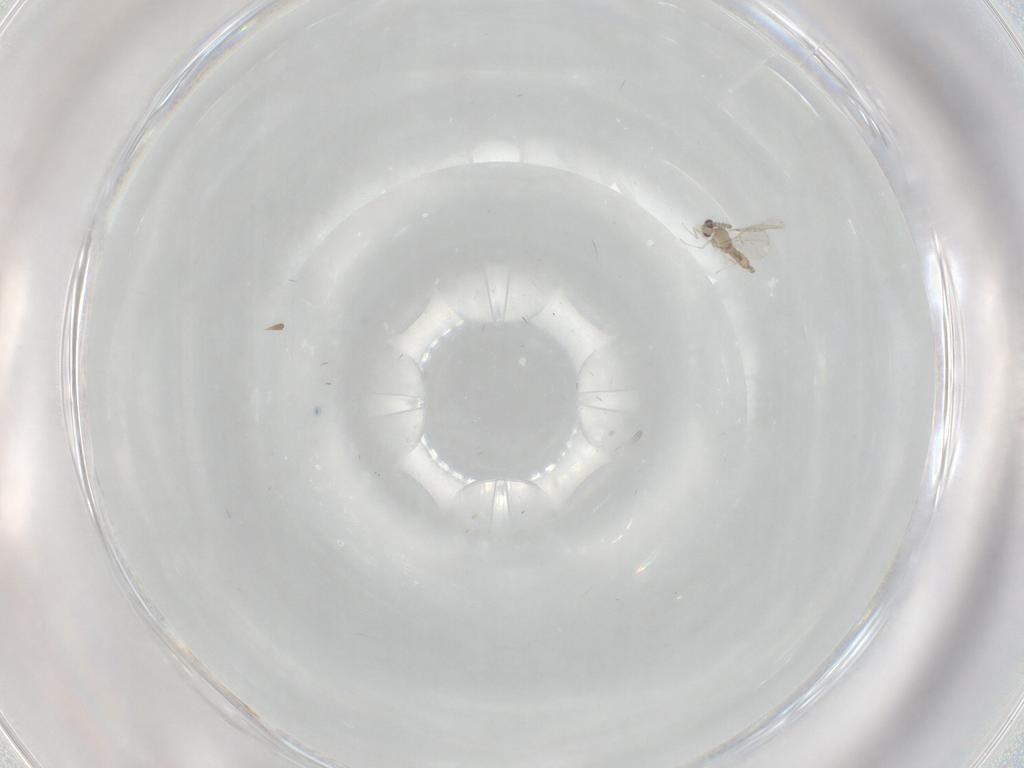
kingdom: Animalia
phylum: Arthropoda
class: Insecta
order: Diptera
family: Cecidomyiidae
